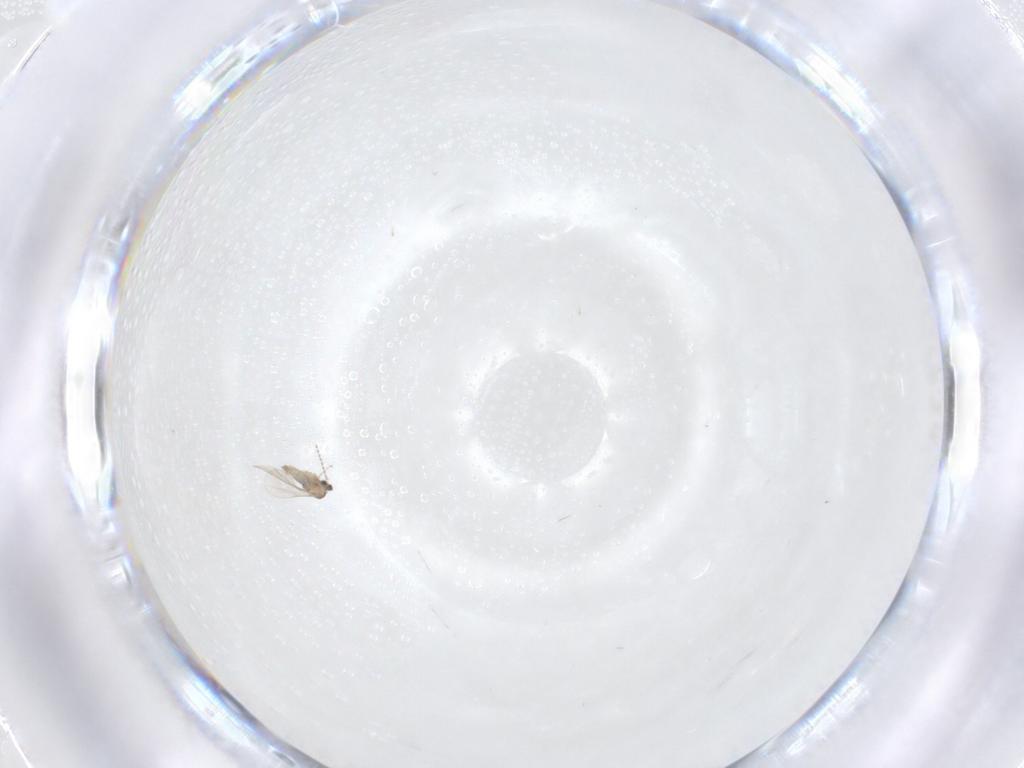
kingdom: Animalia
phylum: Arthropoda
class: Insecta
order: Diptera
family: Cecidomyiidae
